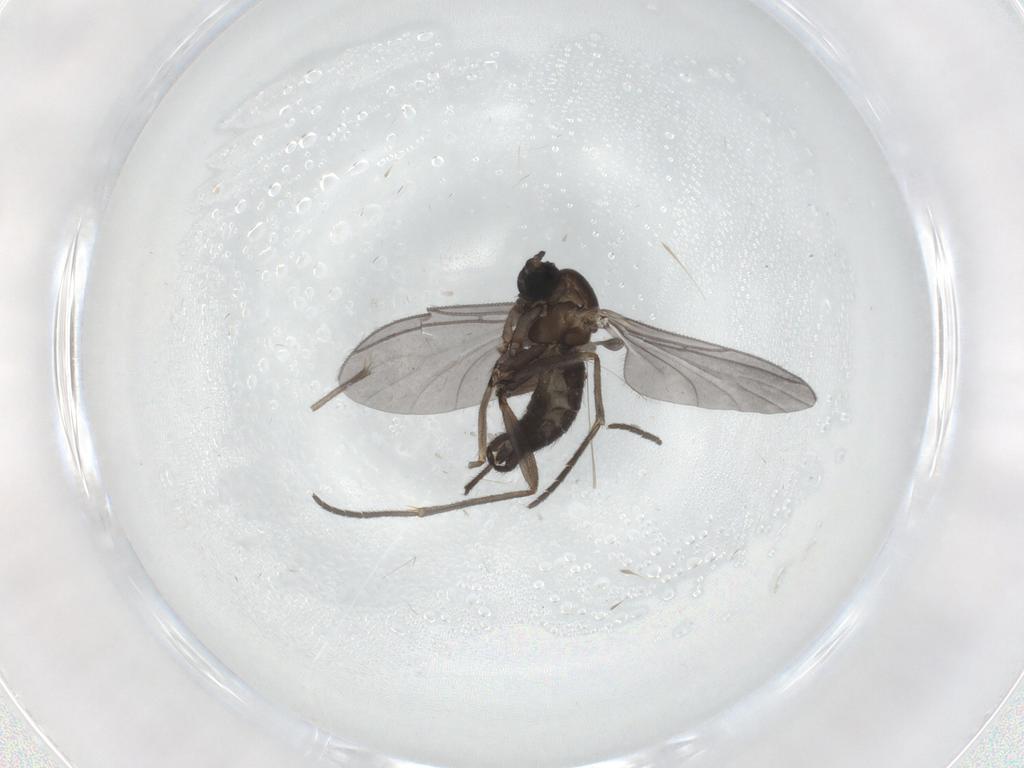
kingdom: Animalia
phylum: Arthropoda
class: Insecta
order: Diptera
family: Sciaridae
